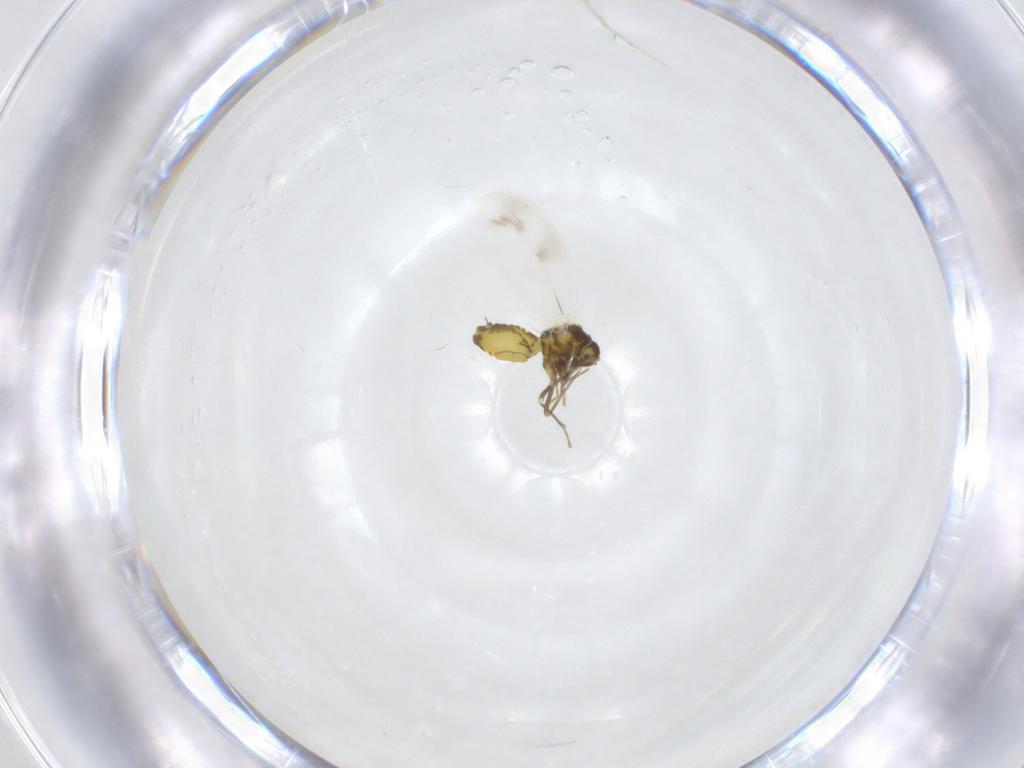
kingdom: Animalia
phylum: Arthropoda
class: Insecta
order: Hemiptera
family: Aleyrodidae
